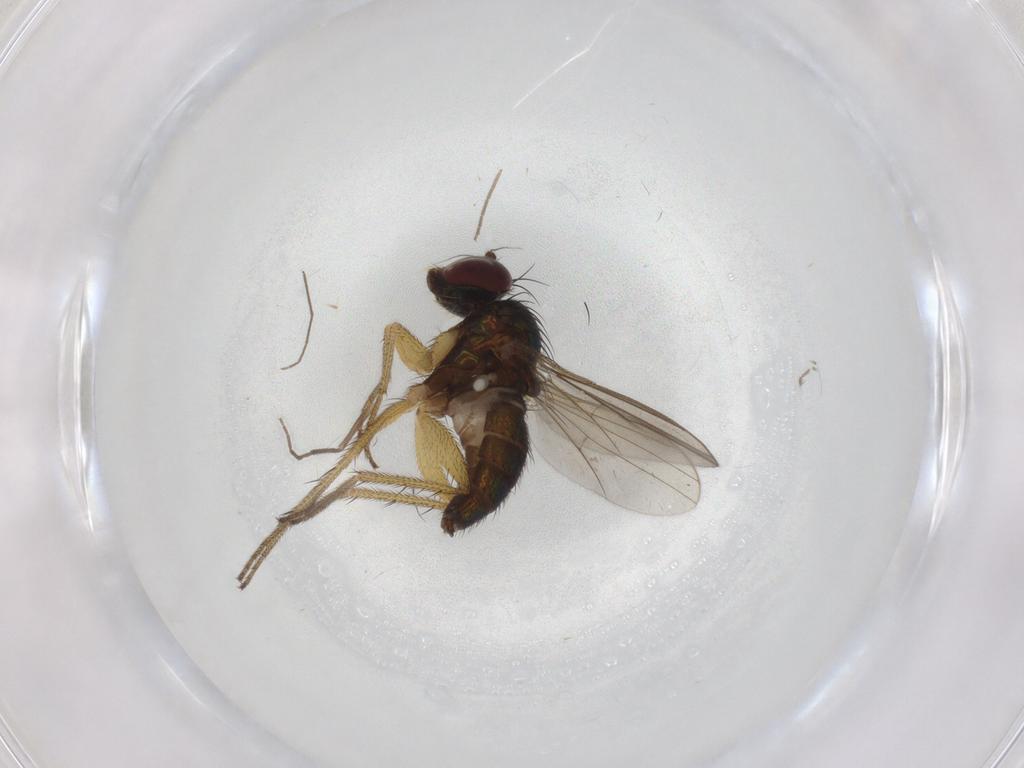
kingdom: Animalia
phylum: Arthropoda
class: Insecta
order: Diptera
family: Chironomidae
